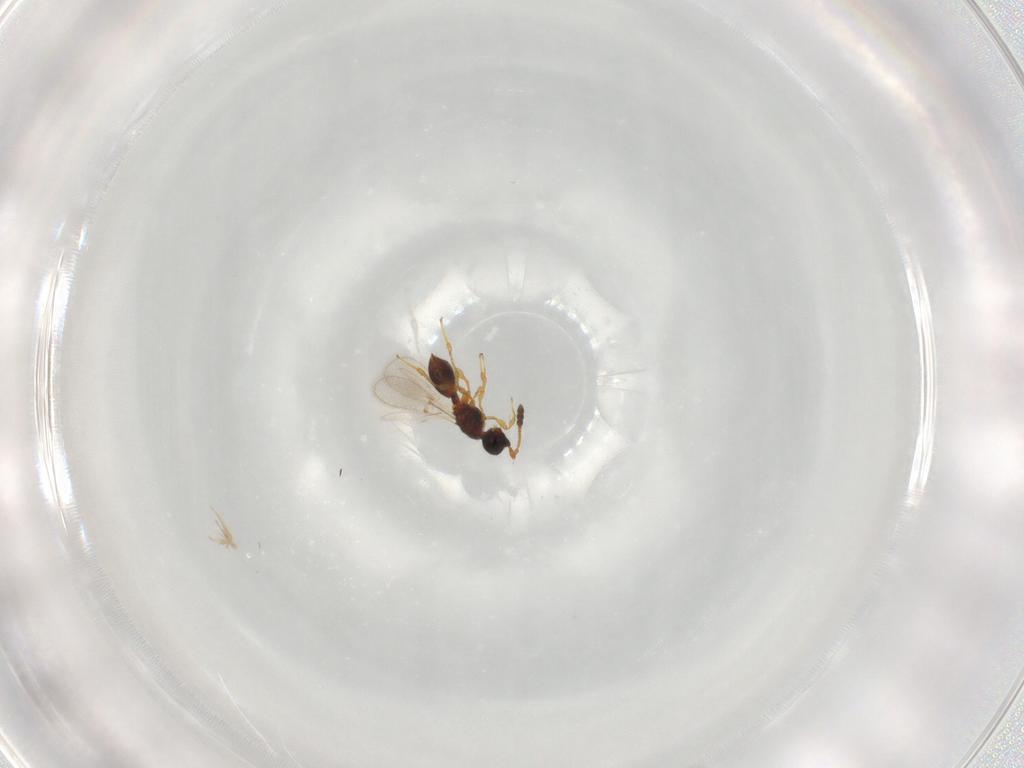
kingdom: Animalia
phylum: Arthropoda
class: Insecta
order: Hymenoptera
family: Diapriidae
